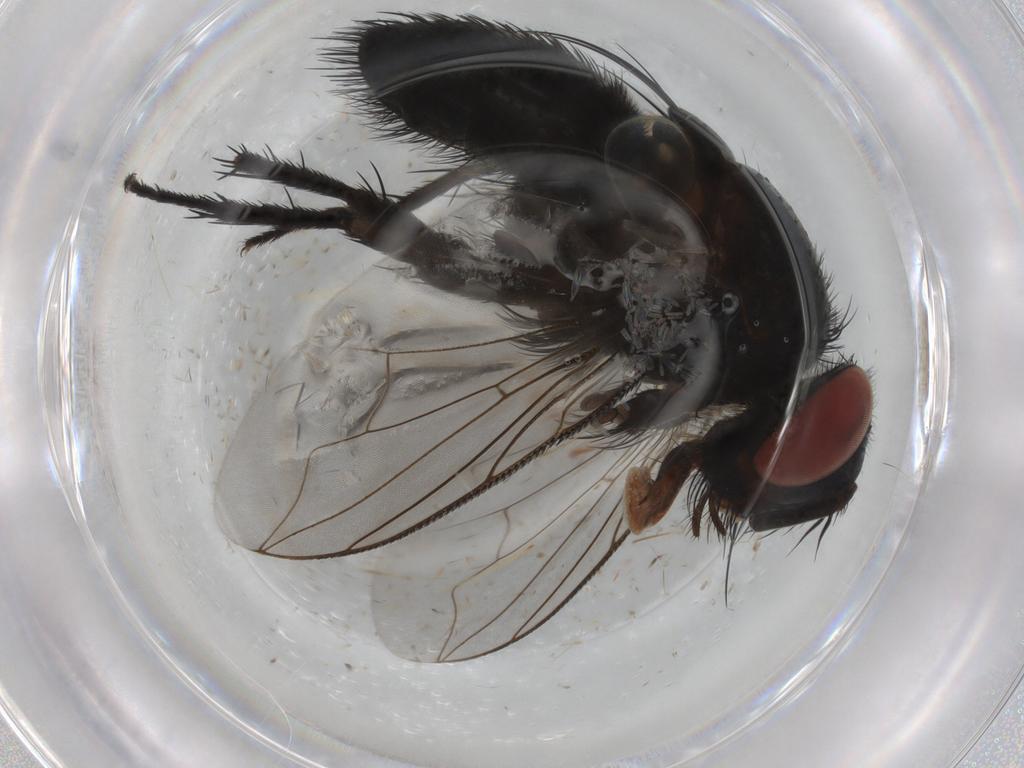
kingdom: Animalia
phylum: Arthropoda
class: Insecta
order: Diptera
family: Tachinidae
